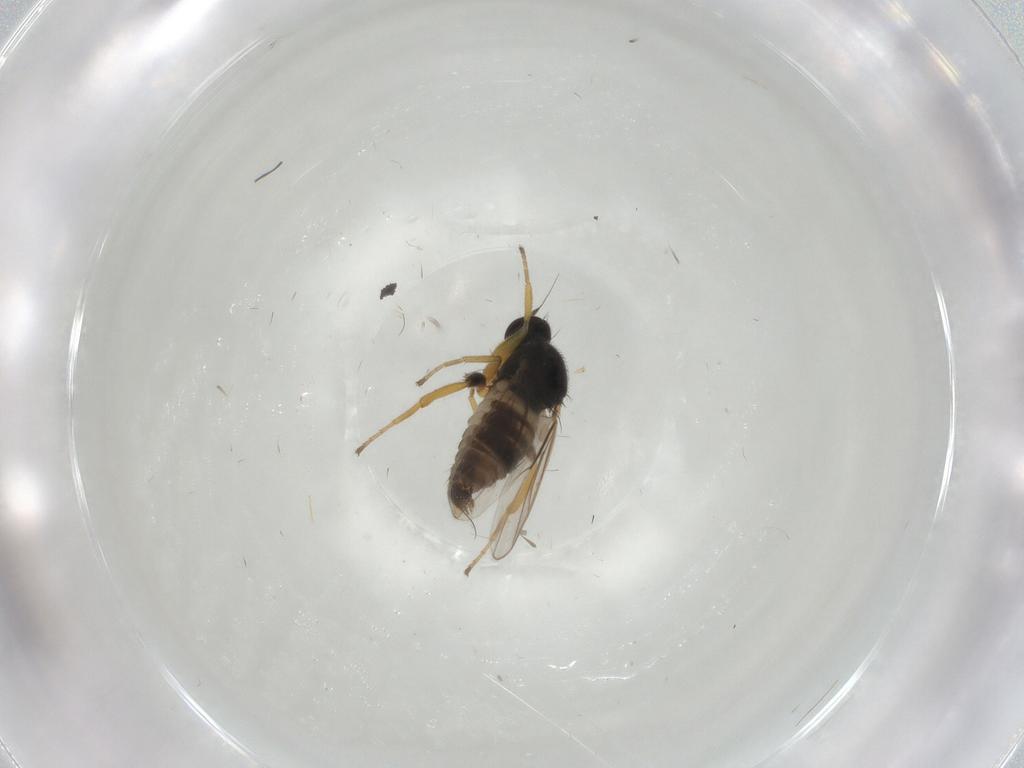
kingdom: Animalia
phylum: Arthropoda
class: Insecta
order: Diptera
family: Hybotidae
